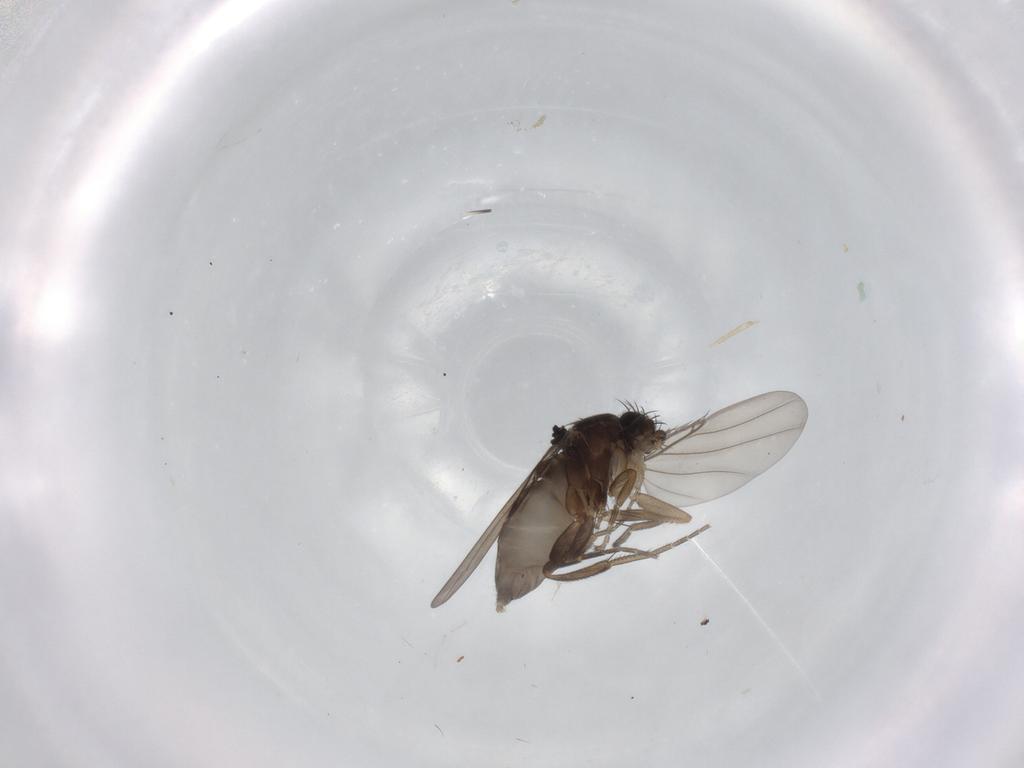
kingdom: Animalia
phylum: Arthropoda
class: Insecta
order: Diptera
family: Phoridae
